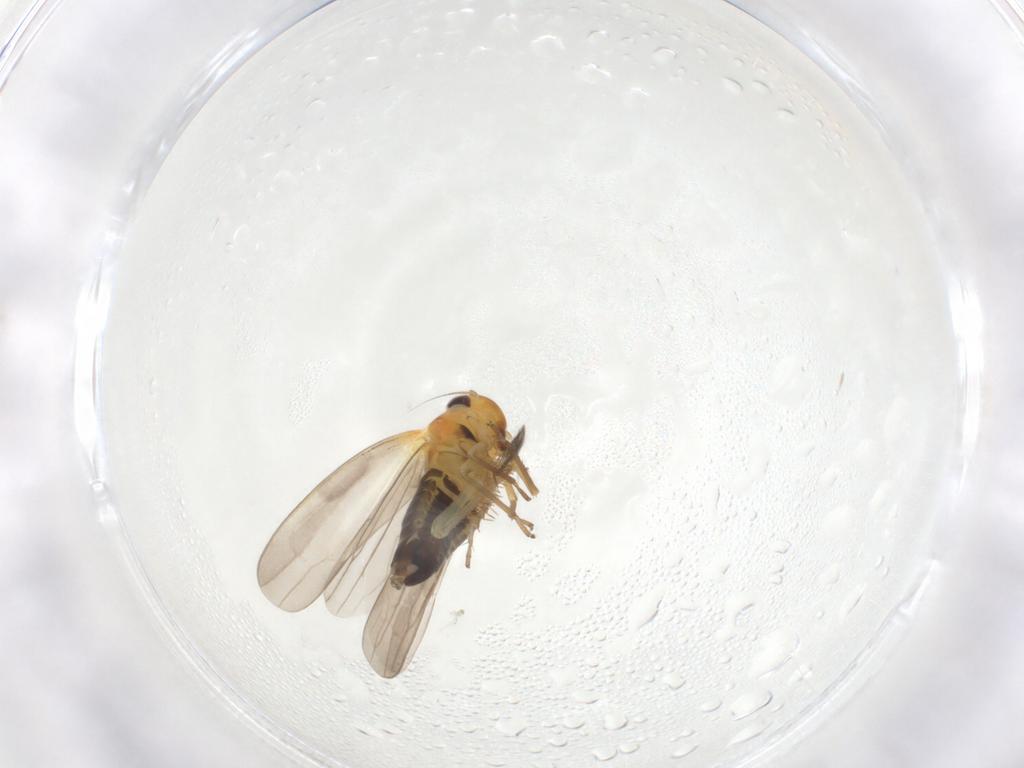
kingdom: Animalia
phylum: Arthropoda
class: Insecta
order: Hemiptera
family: Cicadellidae
